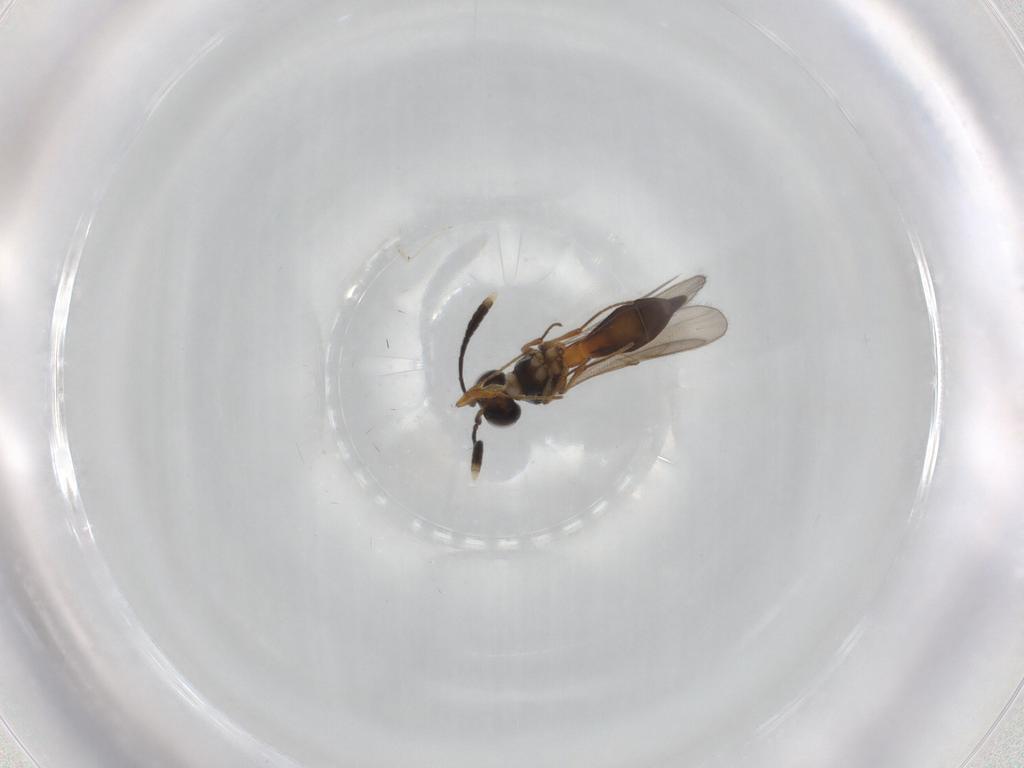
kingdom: Animalia
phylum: Arthropoda
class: Insecta
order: Hymenoptera
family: Scelionidae
